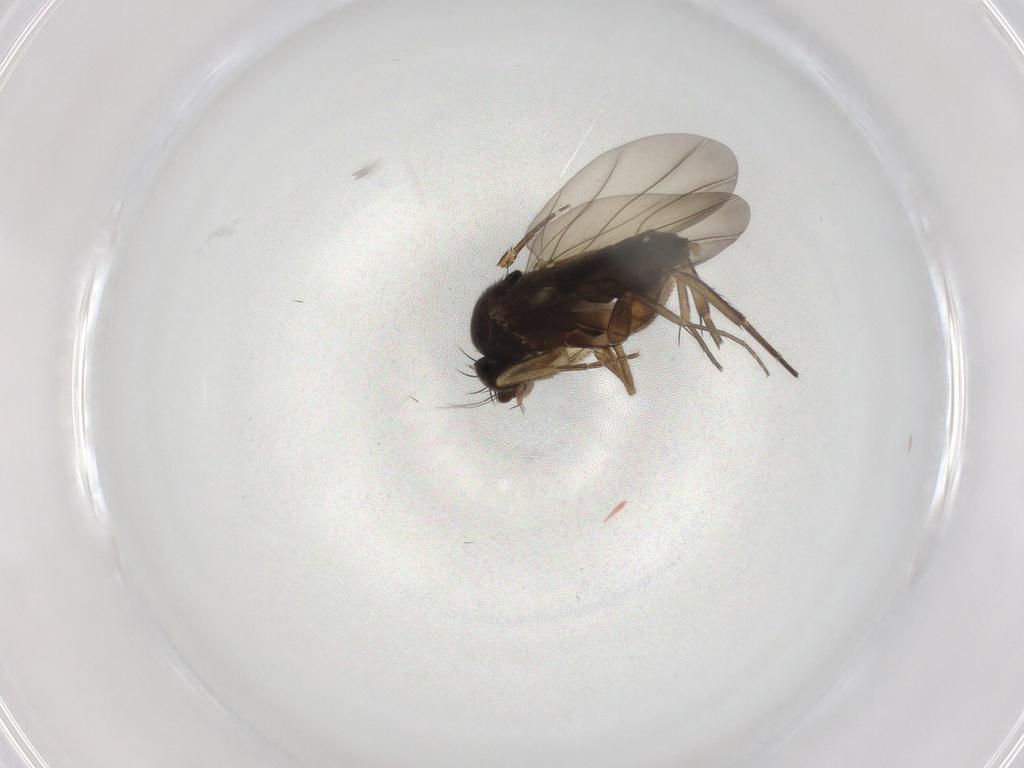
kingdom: Animalia
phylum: Arthropoda
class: Insecta
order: Diptera
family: Phoridae
